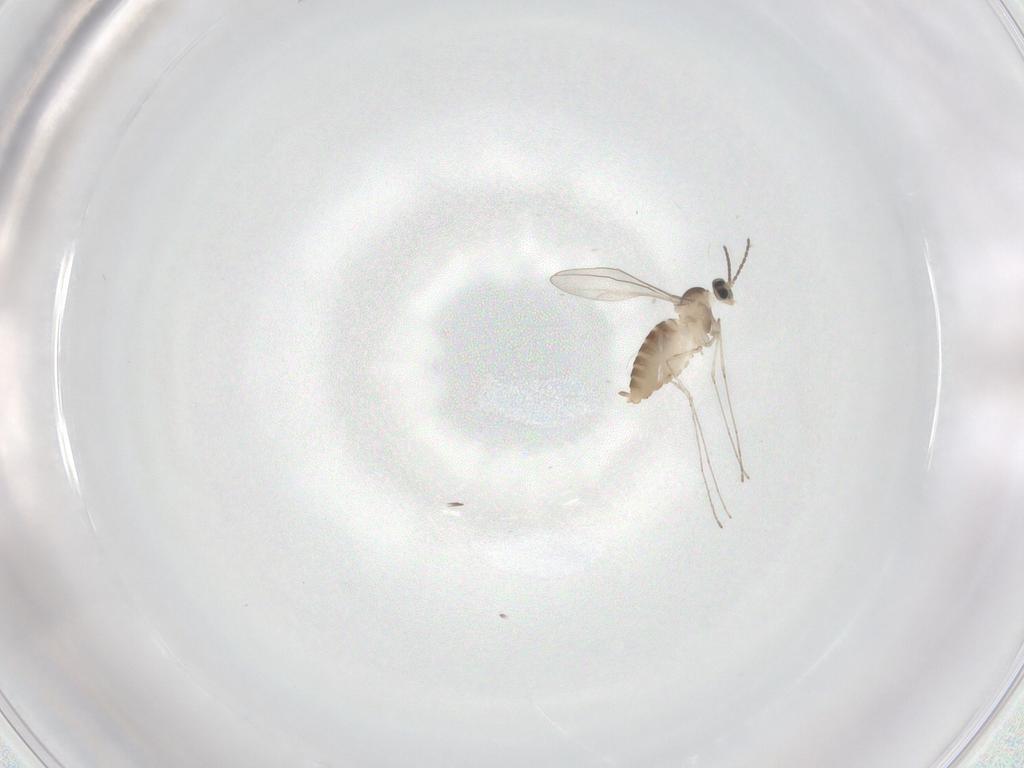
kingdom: Animalia
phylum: Arthropoda
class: Insecta
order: Diptera
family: Cecidomyiidae
